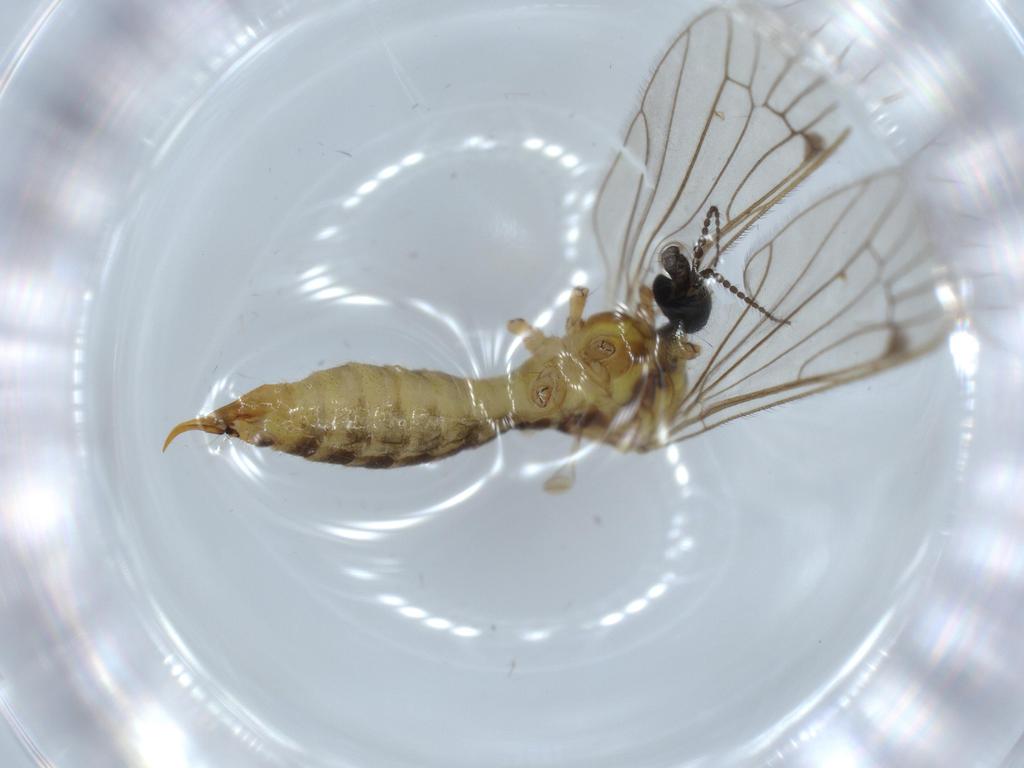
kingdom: Animalia
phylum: Arthropoda
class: Insecta
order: Diptera
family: Limoniidae
